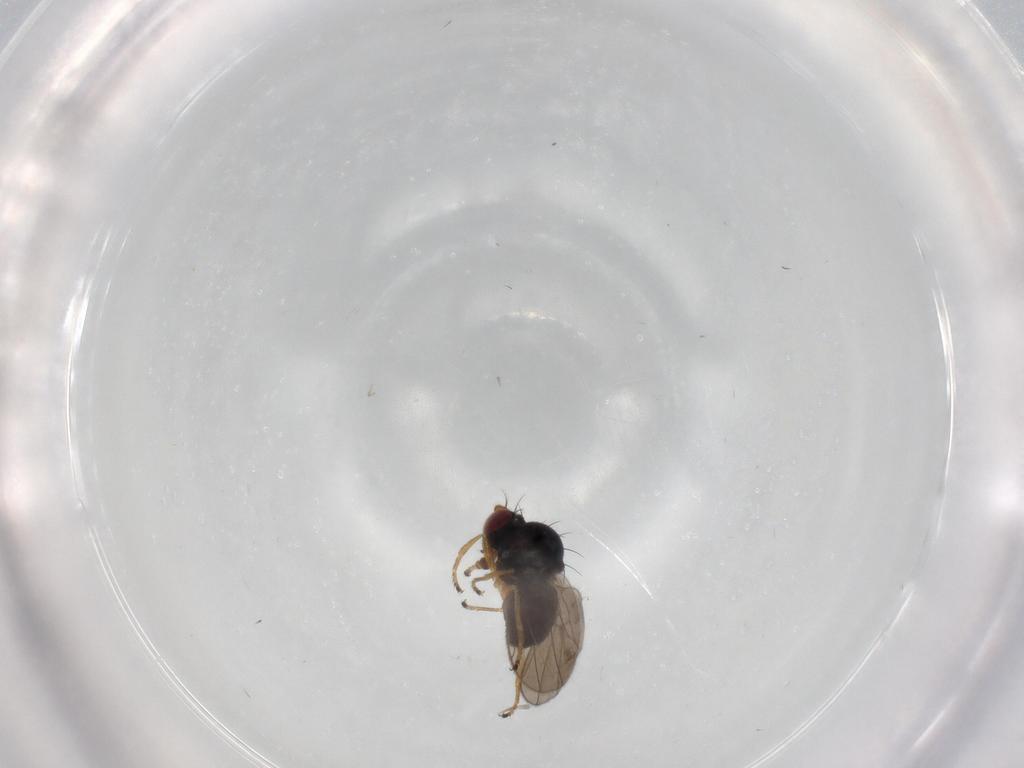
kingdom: Animalia
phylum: Arthropoda
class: Insecta
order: Diptera
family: Ephydridae
